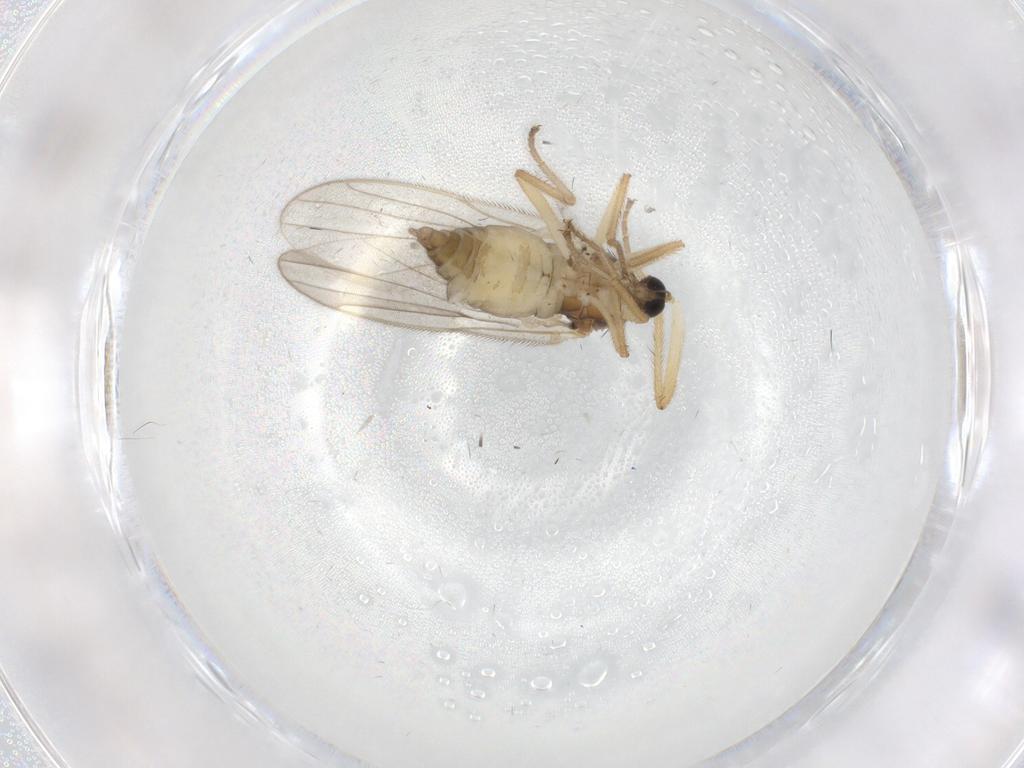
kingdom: Animalia
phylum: Arthropoda
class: Insecta
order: Diptera
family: Hybotidae
